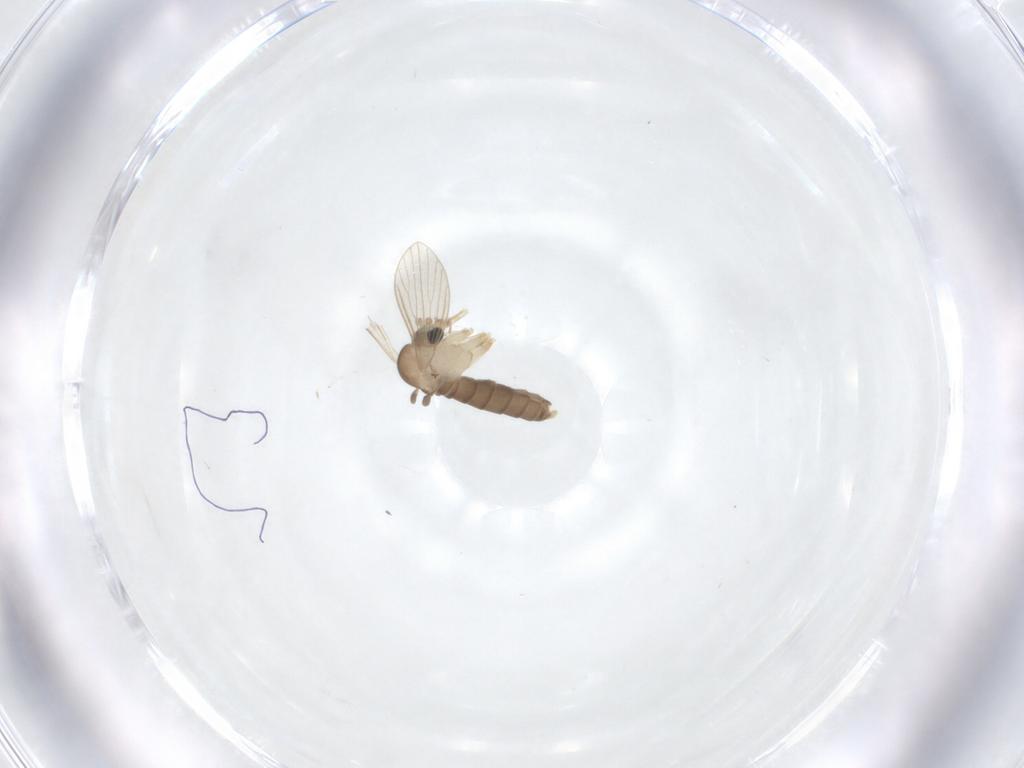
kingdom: Animalia
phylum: Arthropoda
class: Insecta
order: Diptera
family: Psychodidae
